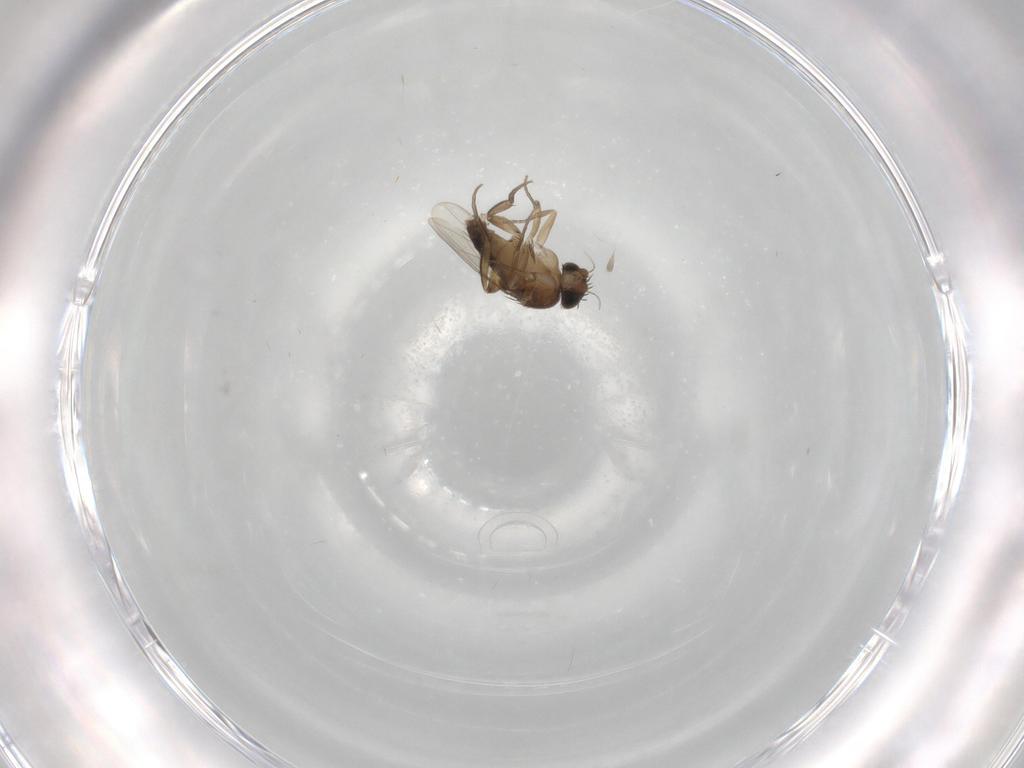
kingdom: Animalia
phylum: Arthropoda
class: Insecta
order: Diptera
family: Phoridae
